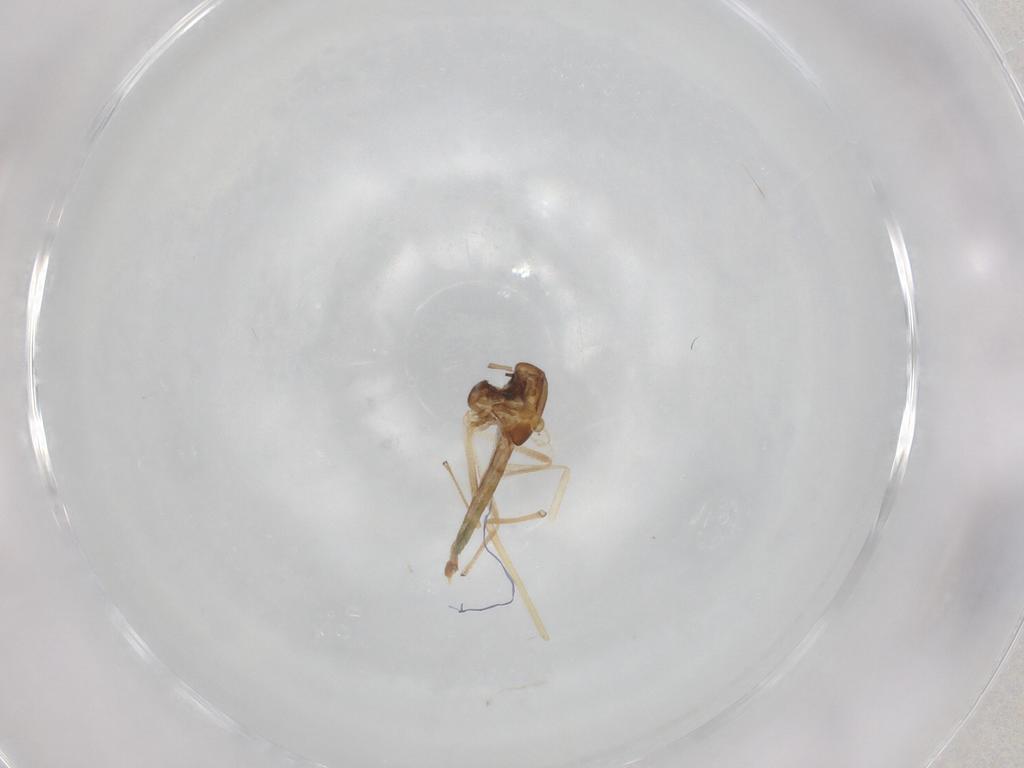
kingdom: Animalia
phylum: Arthropoda
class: Insecta
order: Diptera
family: Chironomidae
